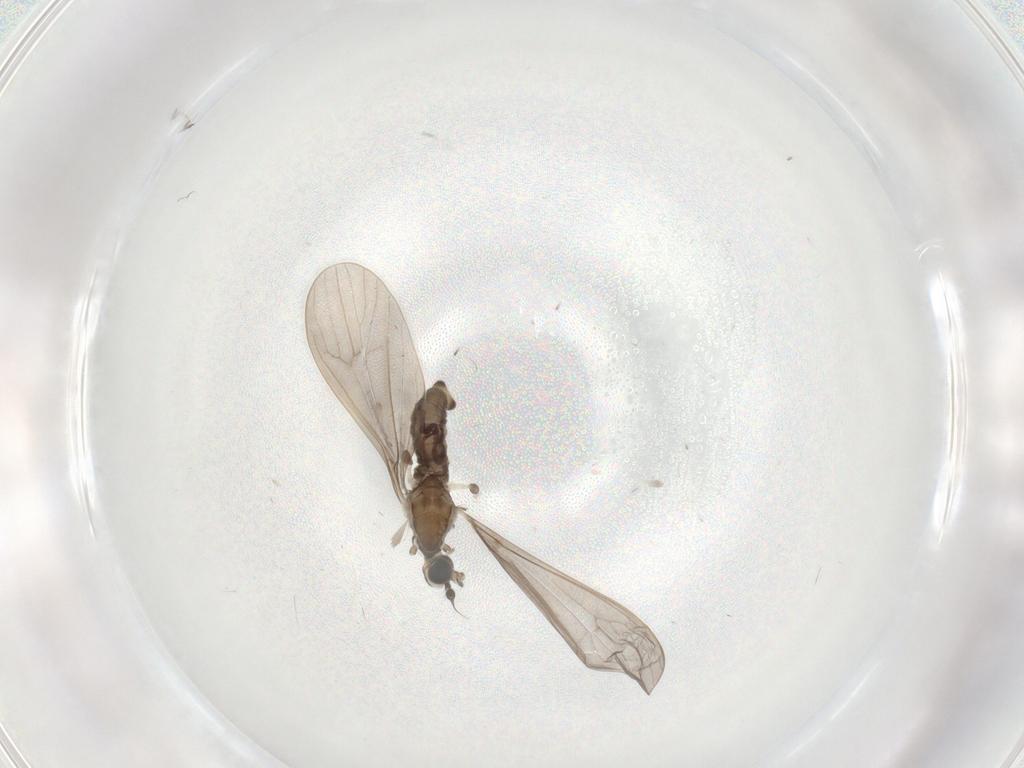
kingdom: Animalia
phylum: Arthropoda
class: Insecta
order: Diptera
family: Limoniidae
